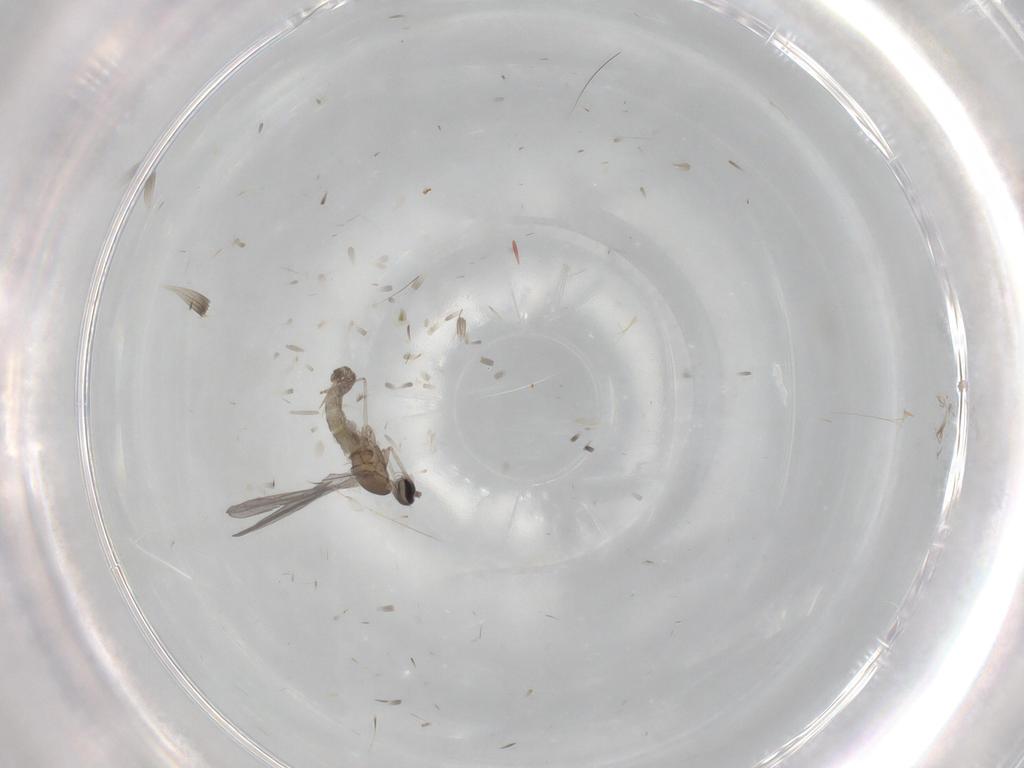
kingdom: Animalia
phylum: Arthropoda
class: Insecta
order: Diptera
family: Cecidomyiidae
